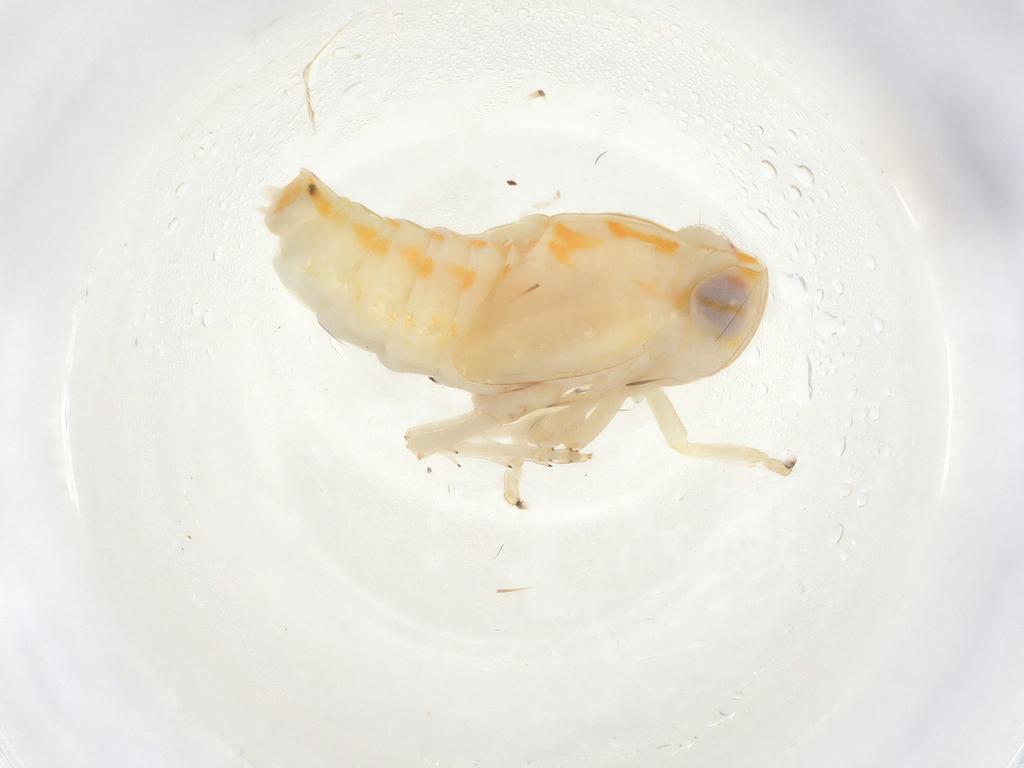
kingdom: Animalia
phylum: Arthropoda
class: Insecta
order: Hemiptera
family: Nogodinidae
